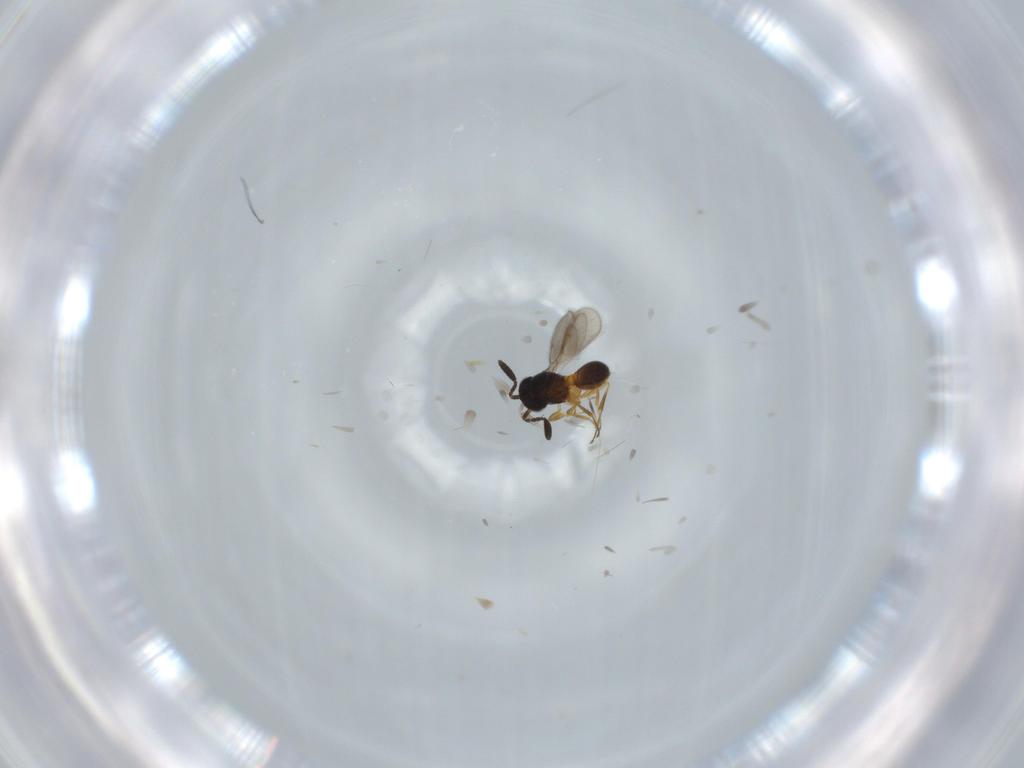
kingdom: Animalia
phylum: Arthropoda
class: Insecta
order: Hymenoptera
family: Scelionidae
